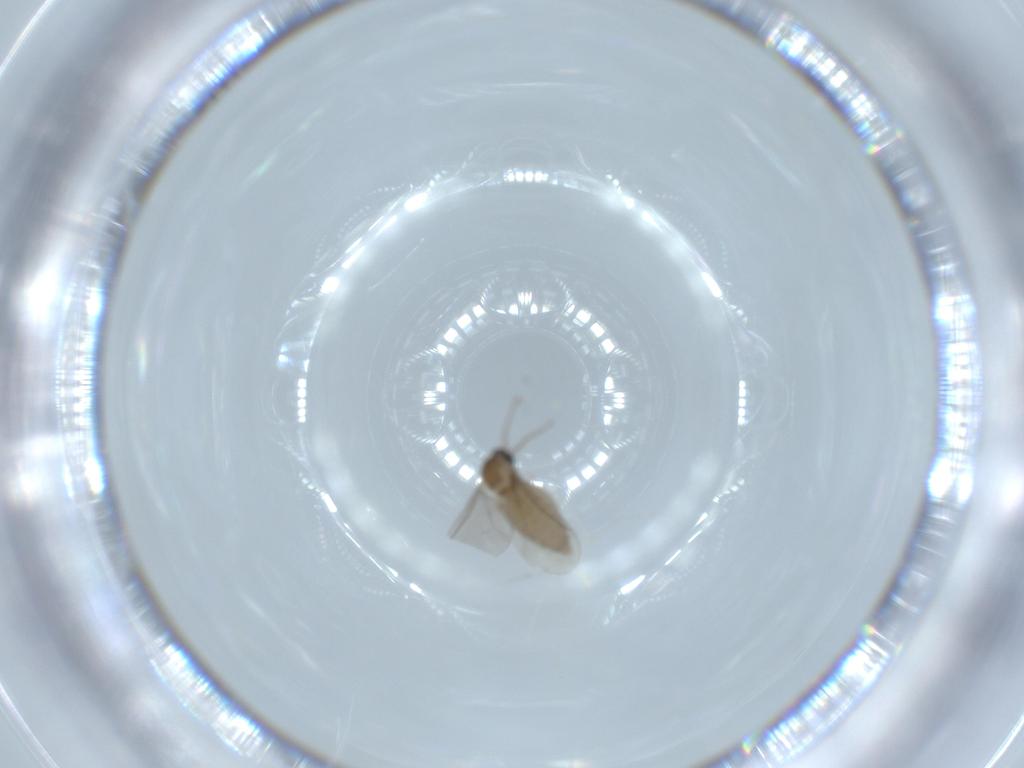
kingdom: Animalia
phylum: Arthropoda
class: Insecta
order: Diptera
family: Cecidomyiidae
